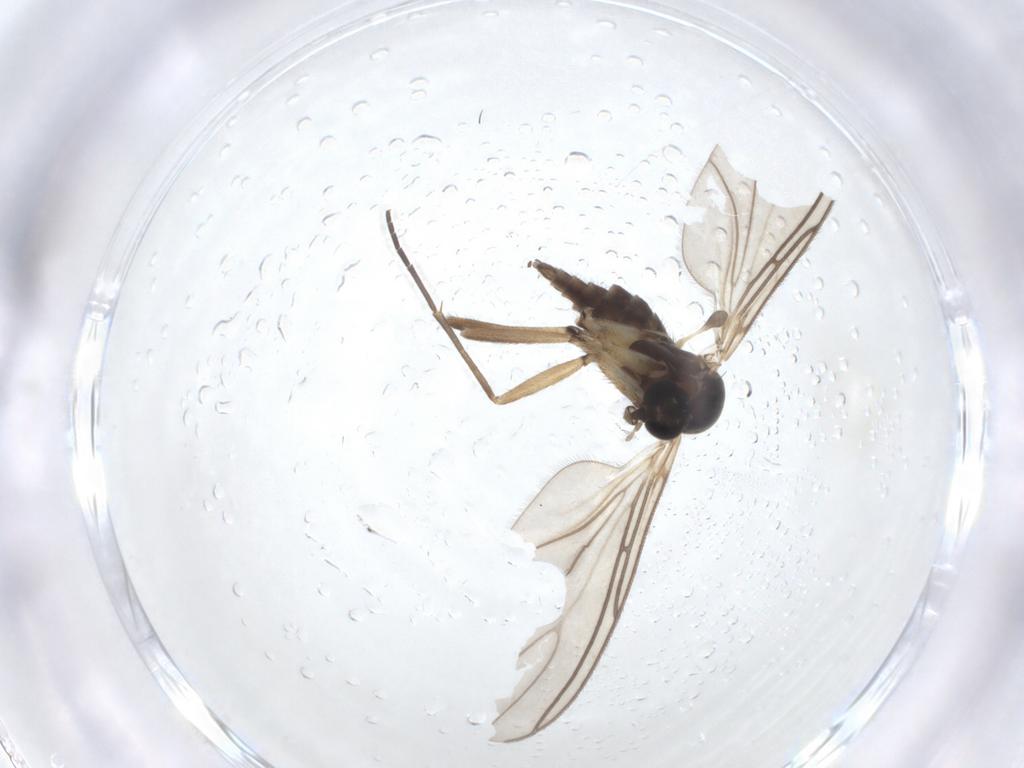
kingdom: Animalia
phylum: Arthropoda
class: Insecta
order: Diptera
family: Sciaridae
